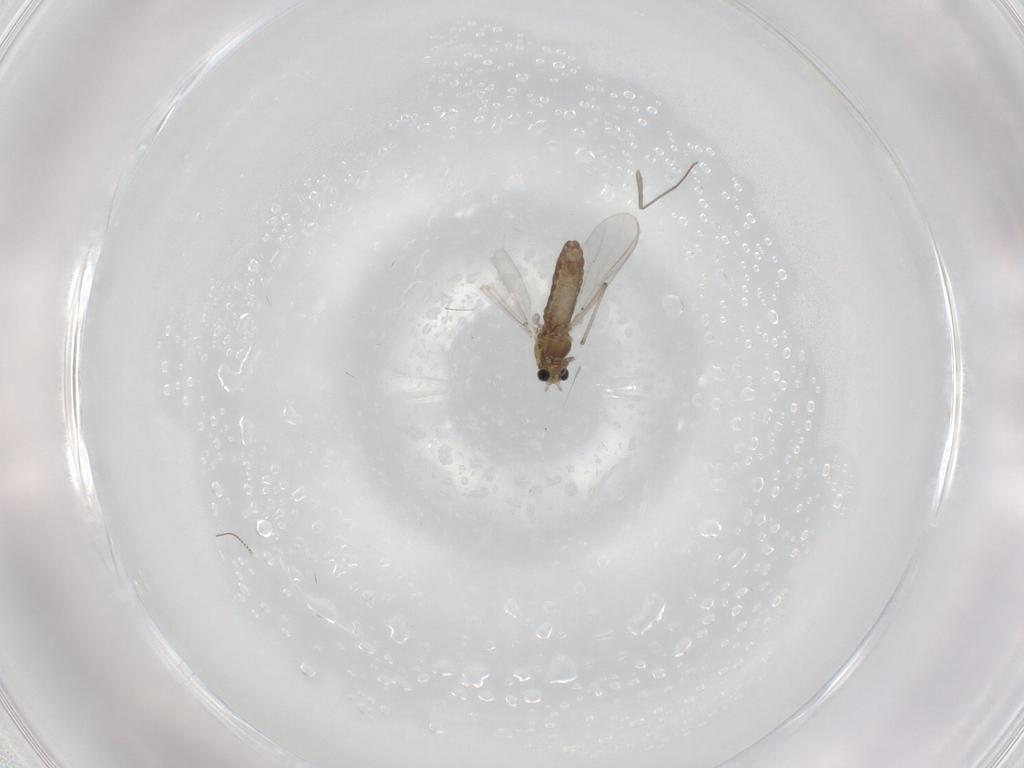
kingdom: Animalia
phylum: Arthropoda
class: Insecta
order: Diptera
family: Chironomidae
